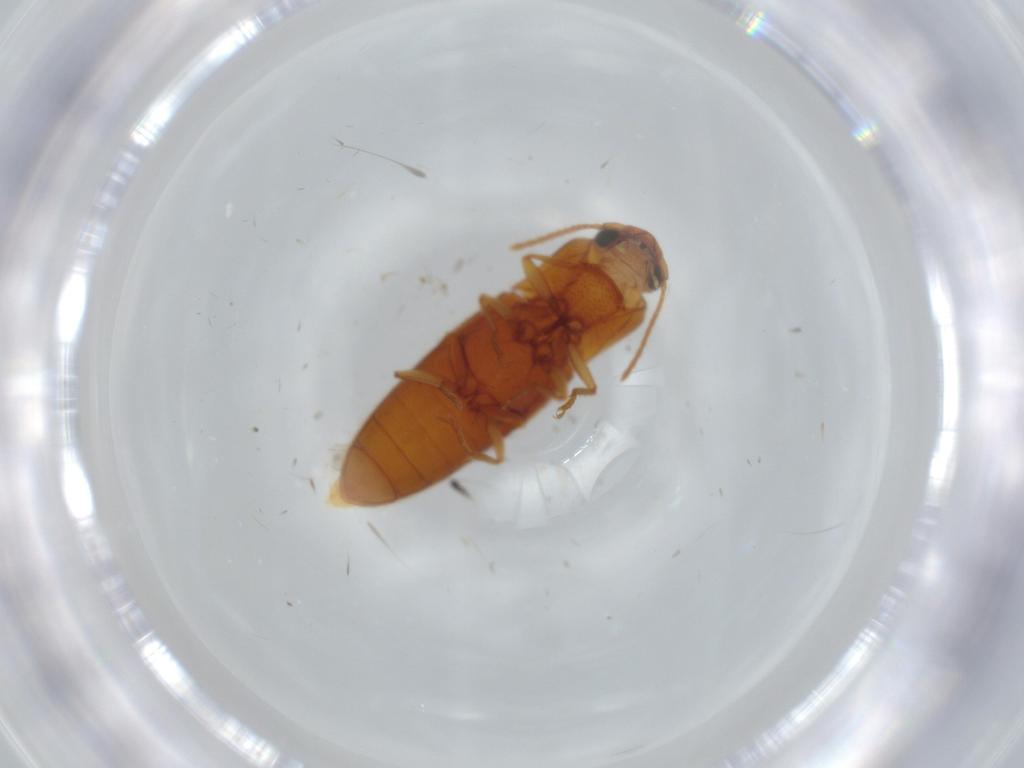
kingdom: Animalia
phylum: Arthropoda
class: Insecta
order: Coleoptera
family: Elateridae
